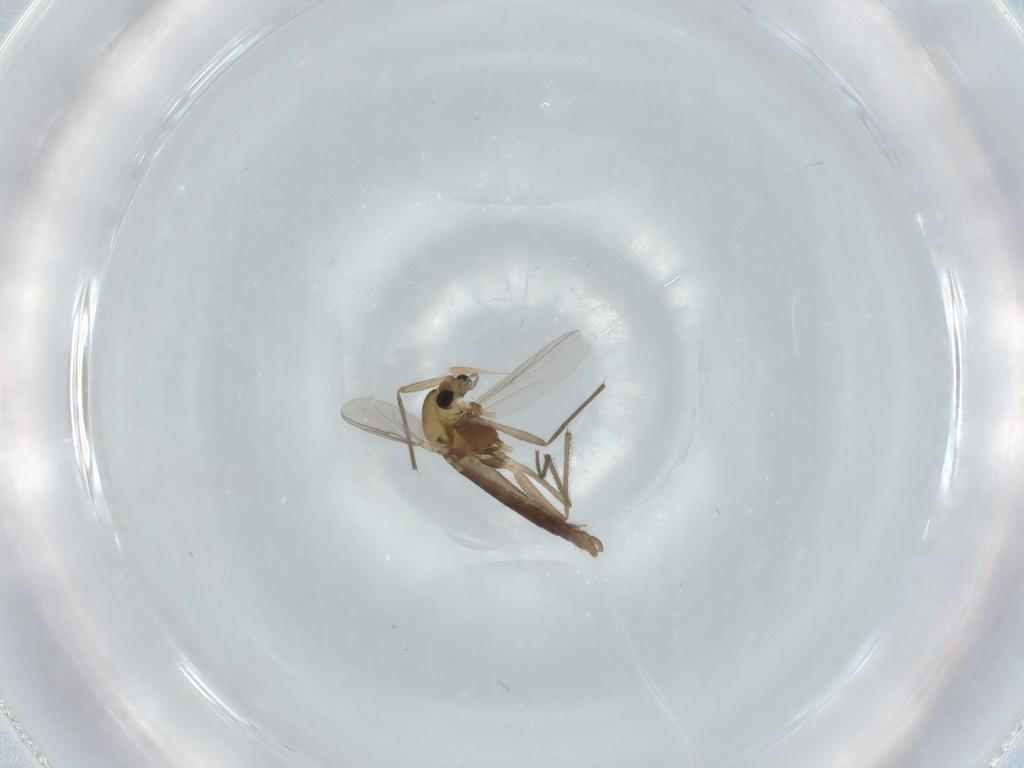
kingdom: Animalia
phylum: Arthropoda
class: Insecta
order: Diptera
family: Chironomidae
